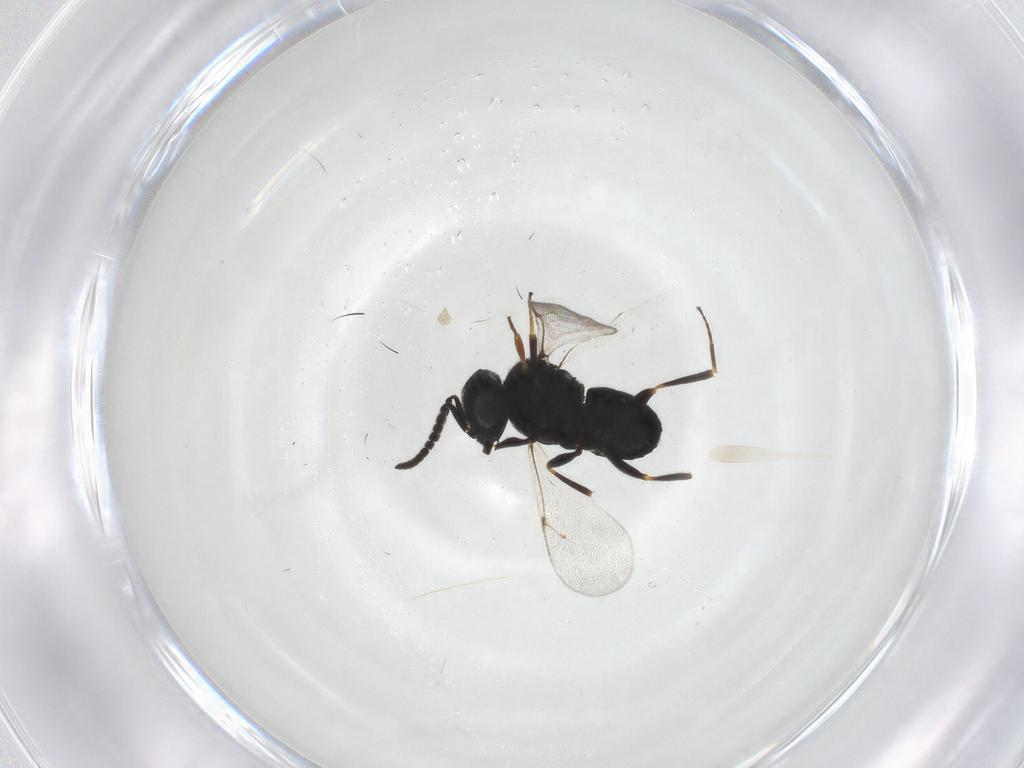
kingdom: Animalia
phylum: Arthropoda
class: Insecta
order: Hymenoptera
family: Scelionidae
